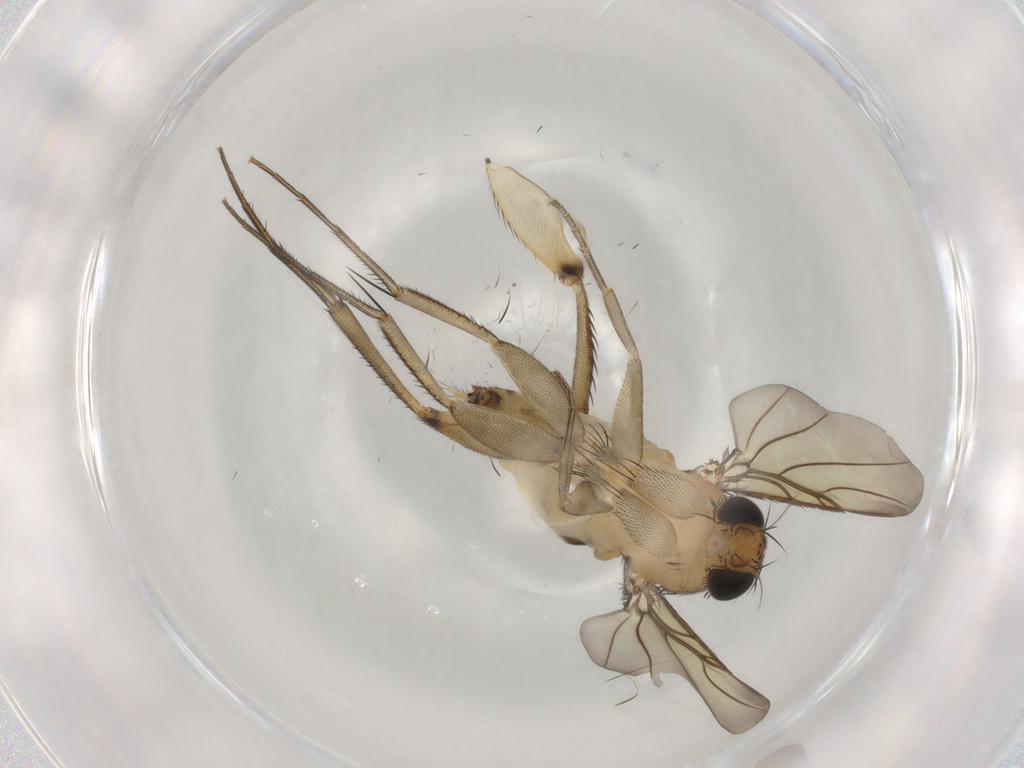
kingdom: Animalia
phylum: Arthropoda
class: Insecta
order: Diptera
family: Phoridae
